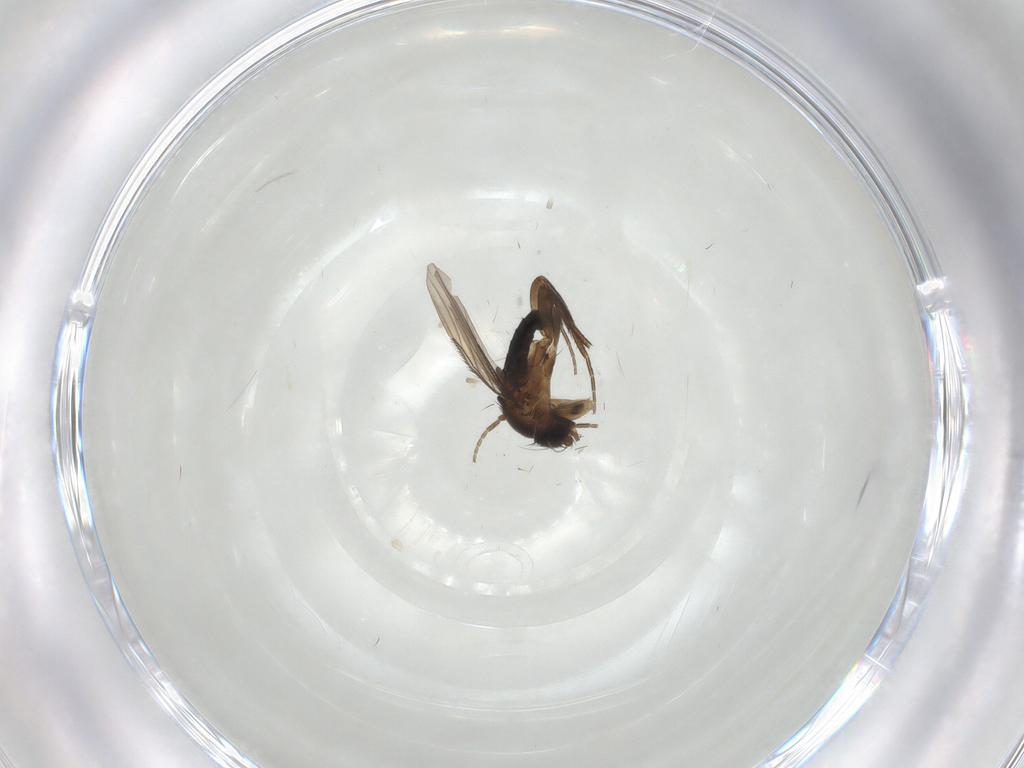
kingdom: Animalia
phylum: Arthropoda
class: Insecta
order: Diptera
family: Phoridae
